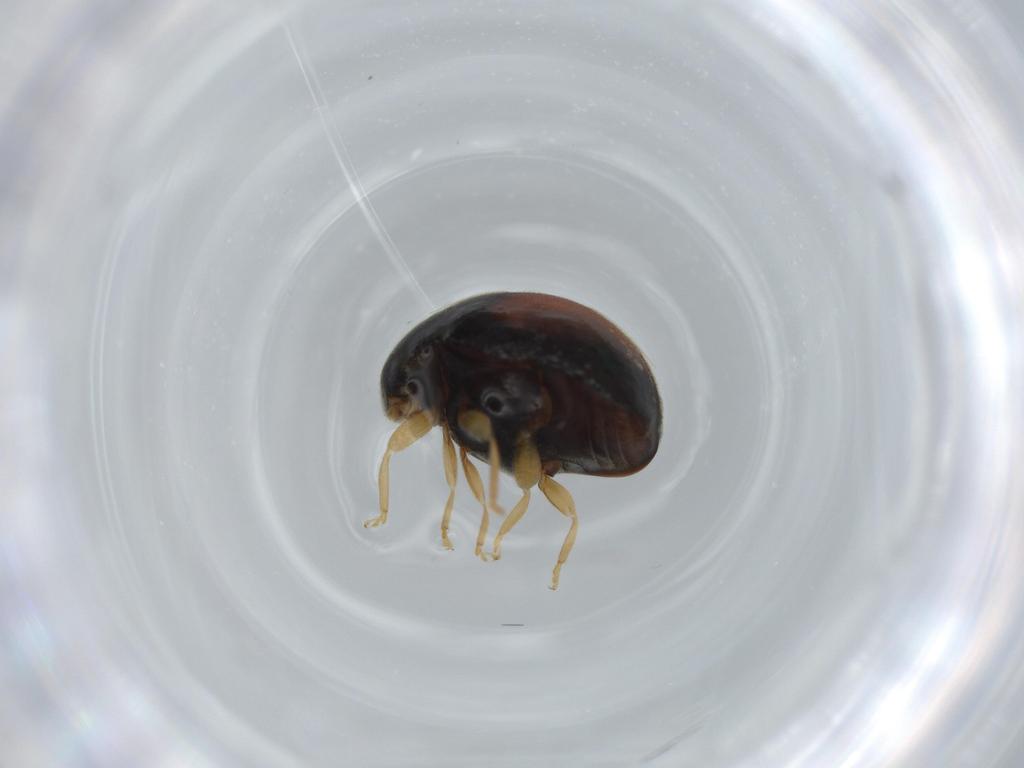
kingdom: Animalia
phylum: Arthropoda
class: Insecta
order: Coleoptera
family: Coccinellidae
